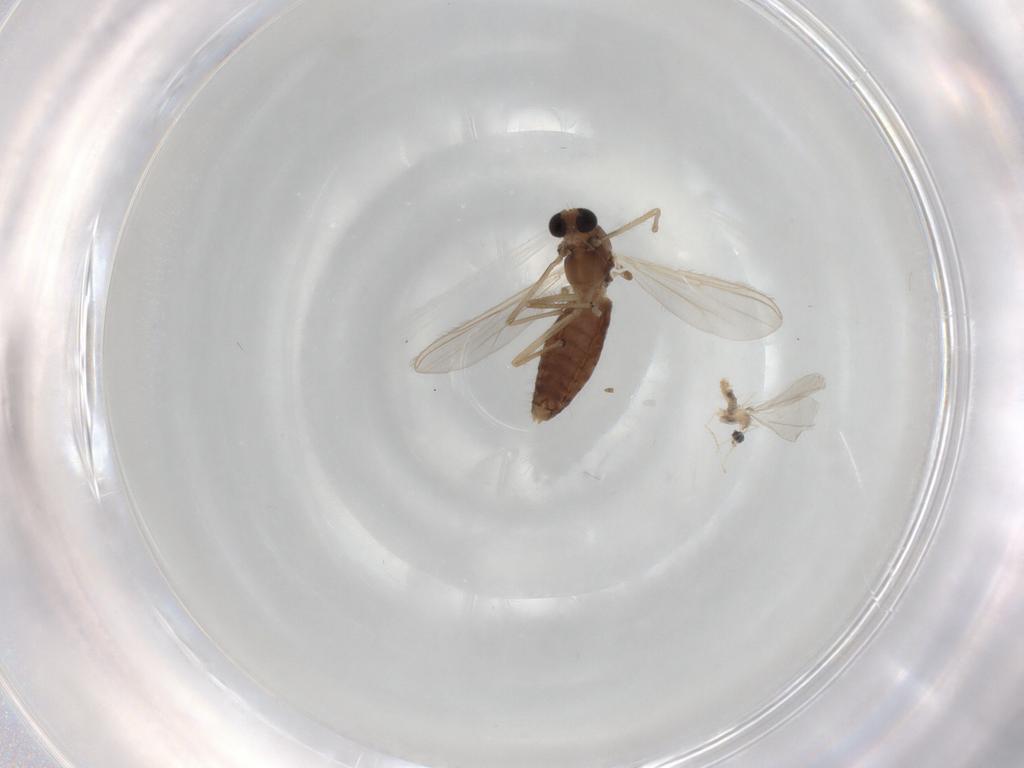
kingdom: Animalia
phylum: Arthropoda
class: Insecta
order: Diptera
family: Chironomidae
